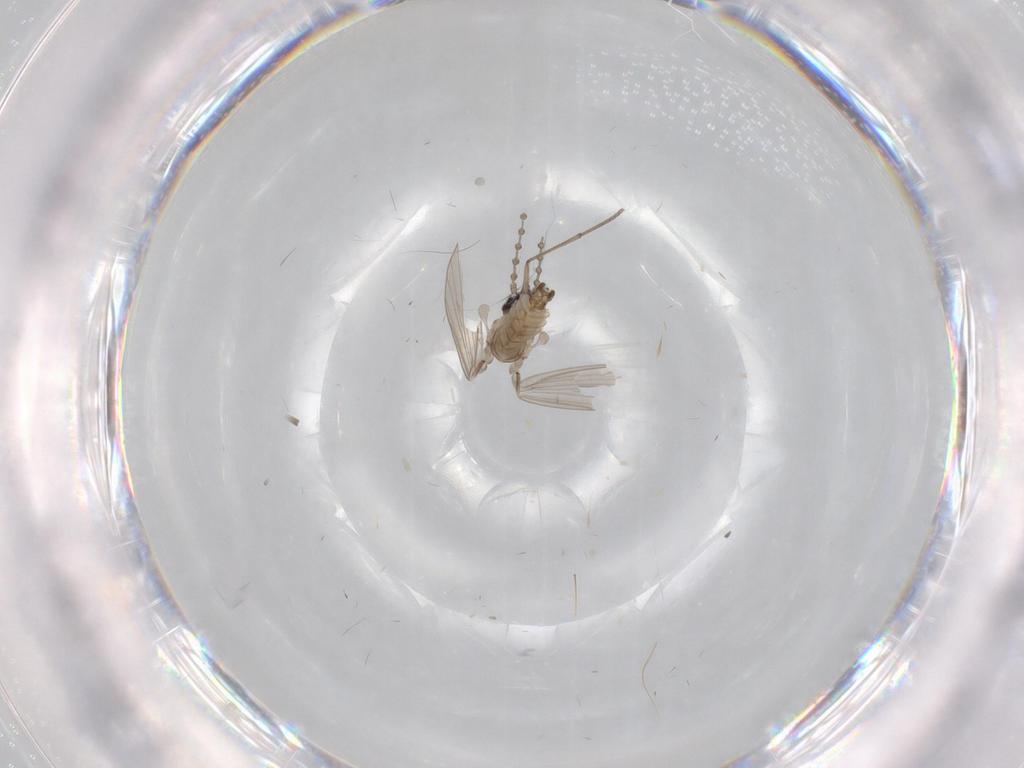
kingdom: Animalia
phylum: Arthropoda
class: Insecta
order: Diptera
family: Psychodidae
